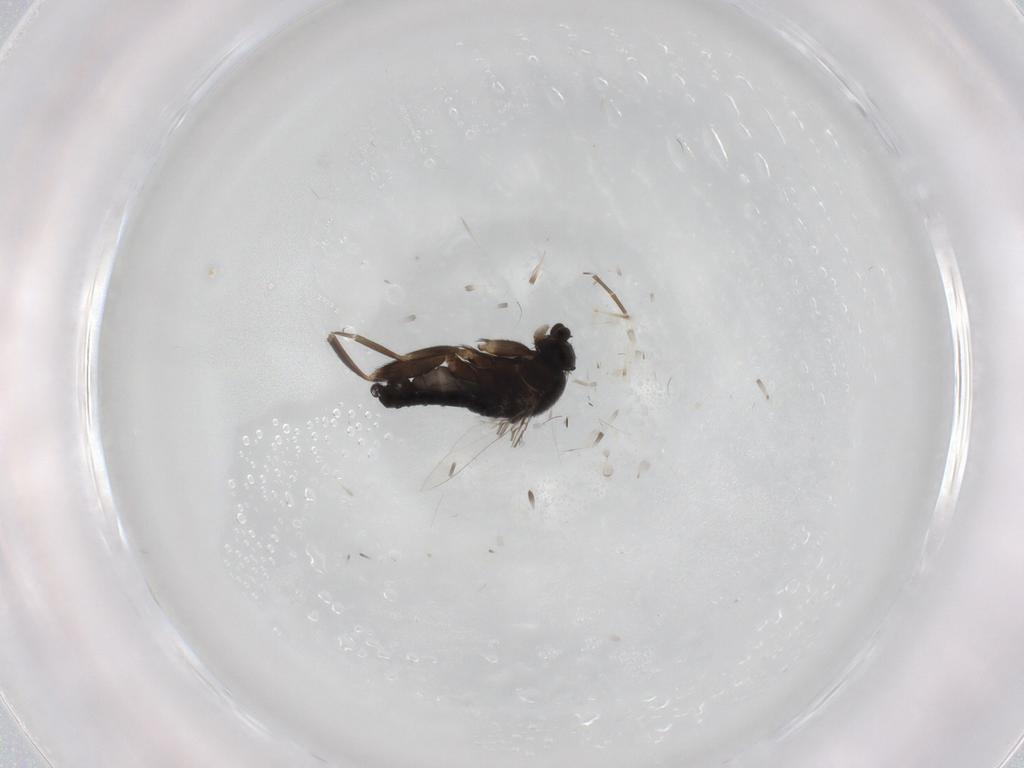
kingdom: Animalia
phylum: Arthropoda
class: Insecta
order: Diptera
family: Phoridae
